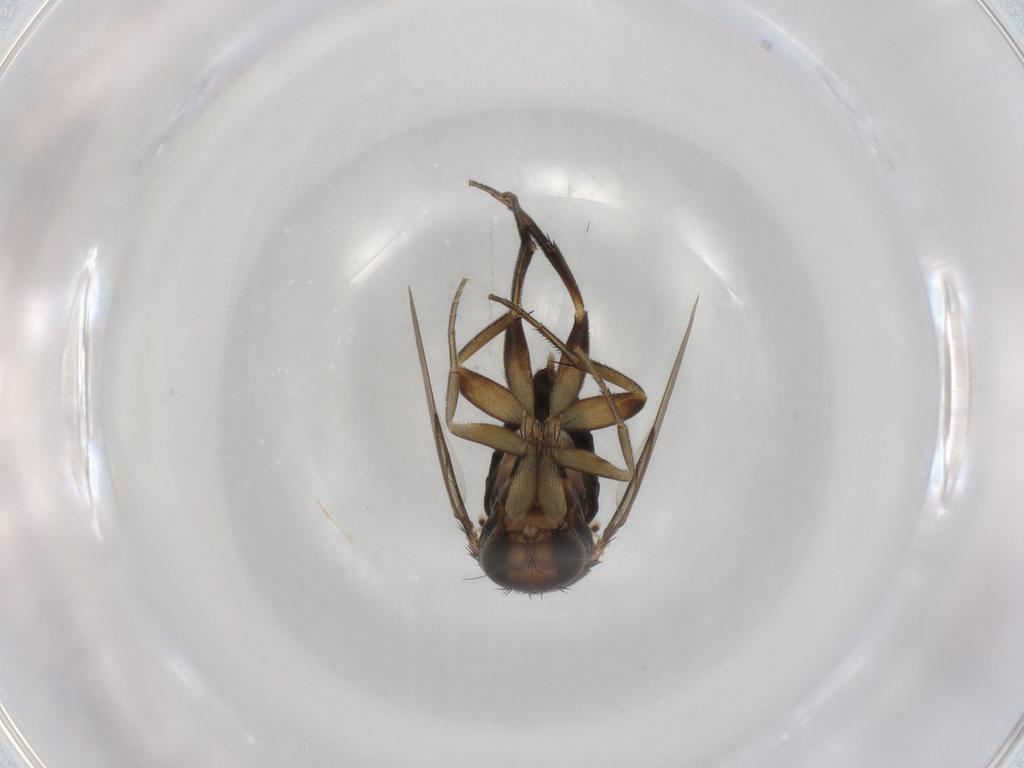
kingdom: Animalia
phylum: Arthropoda
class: Insecta
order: Diptera
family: Phoridae
